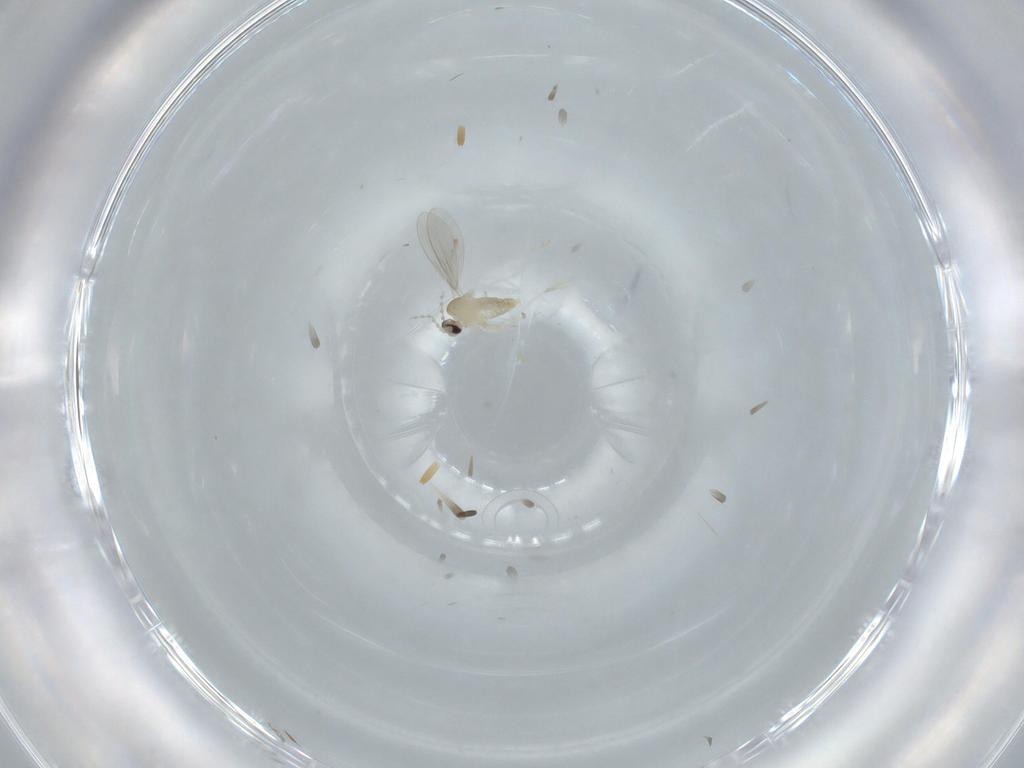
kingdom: Animalia
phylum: Arthropoda
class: Insecta
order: Diptera
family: Cecidomyiidae
